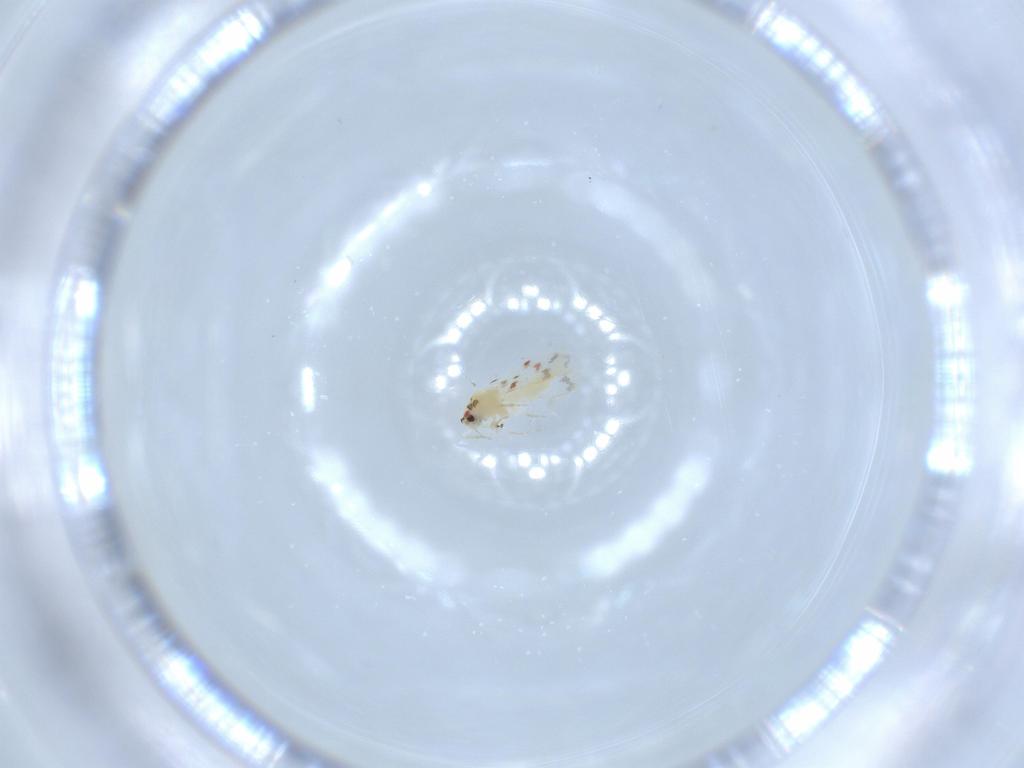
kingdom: Animalia
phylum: Arthropoda
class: Insecta
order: Hemiptera
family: Aleyrodidae
